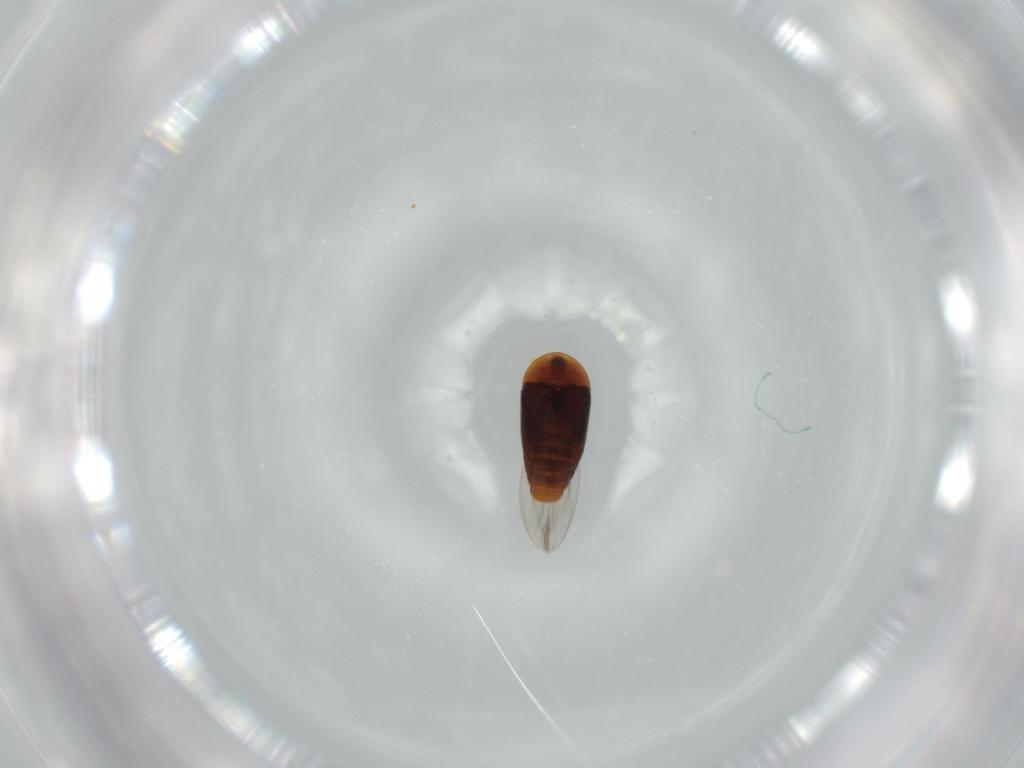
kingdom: Animalia
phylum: Arthropoda
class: Insecta
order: Coleoptera
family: Corylophidae
